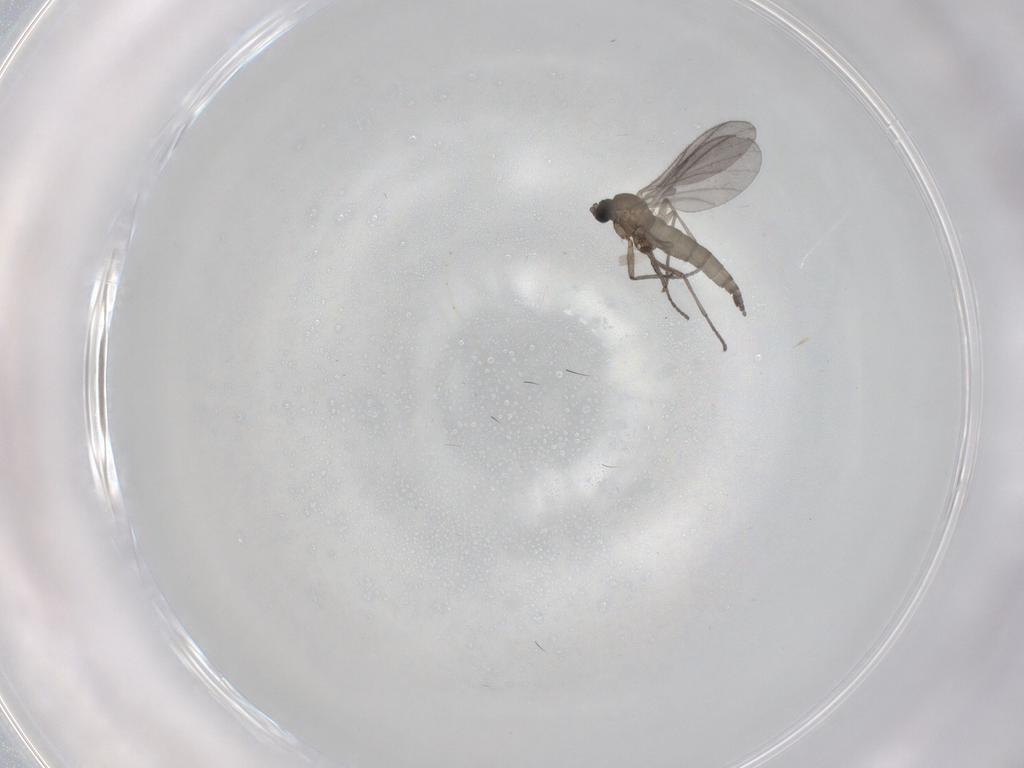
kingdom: Animalia
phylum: Arthropoda
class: Insecta
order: Diptera
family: Sciaridae
